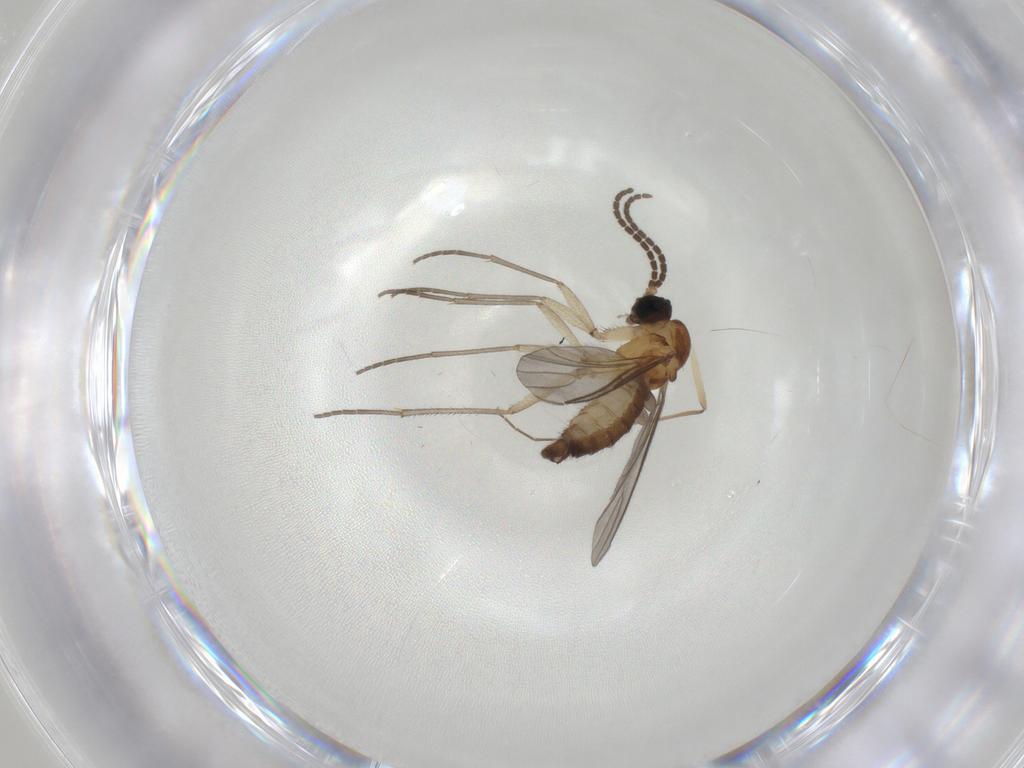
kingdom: Animalia
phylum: Arthropoda
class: Insecta
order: Diptera
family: Sciaridae
